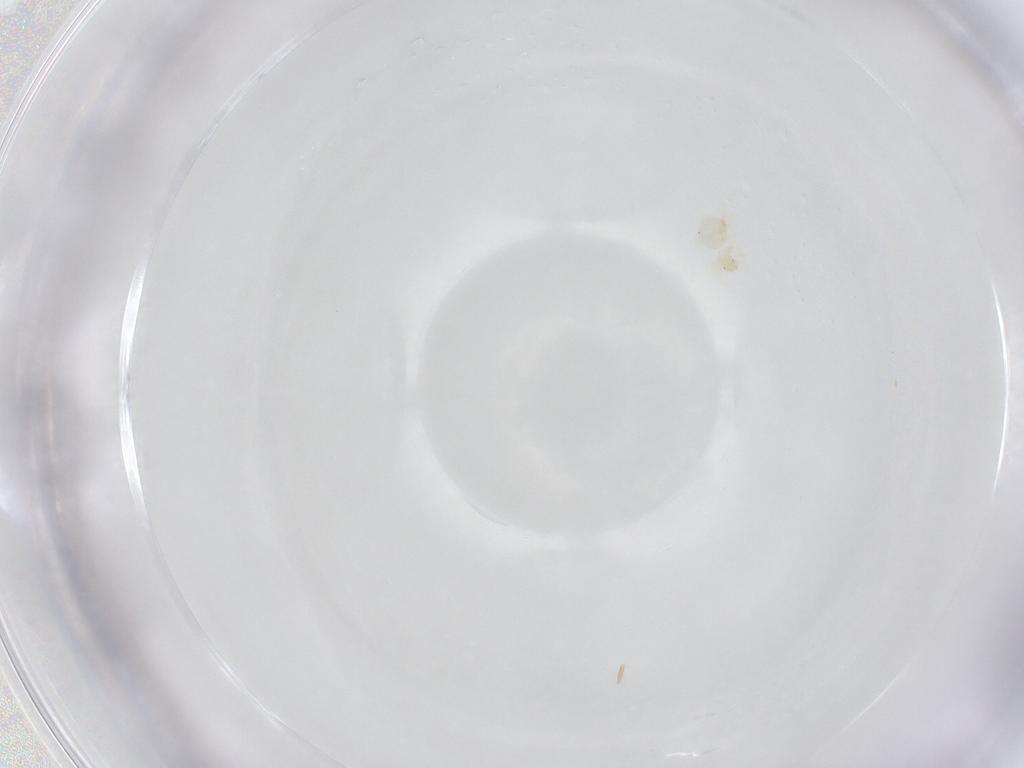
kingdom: Animalia
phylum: Arthropoda
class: Arachnida
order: Trombidiformes
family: Anystidae
